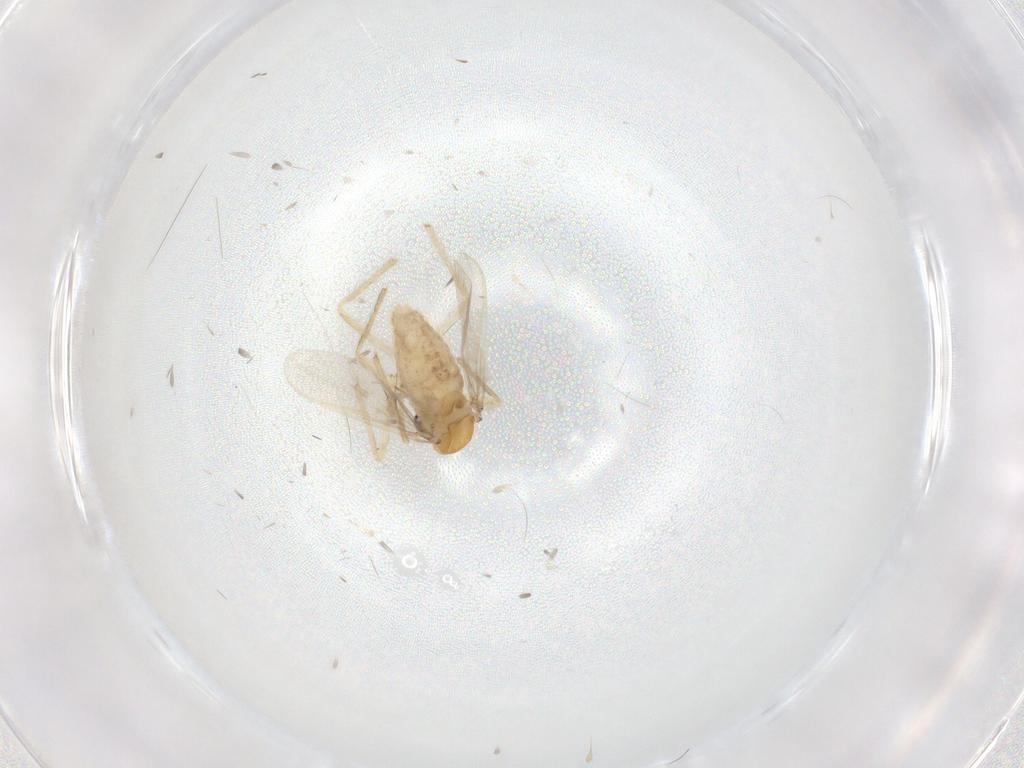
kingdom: Animalia
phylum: Arthropoda
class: Insecta
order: Diptera
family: Chironomidae
